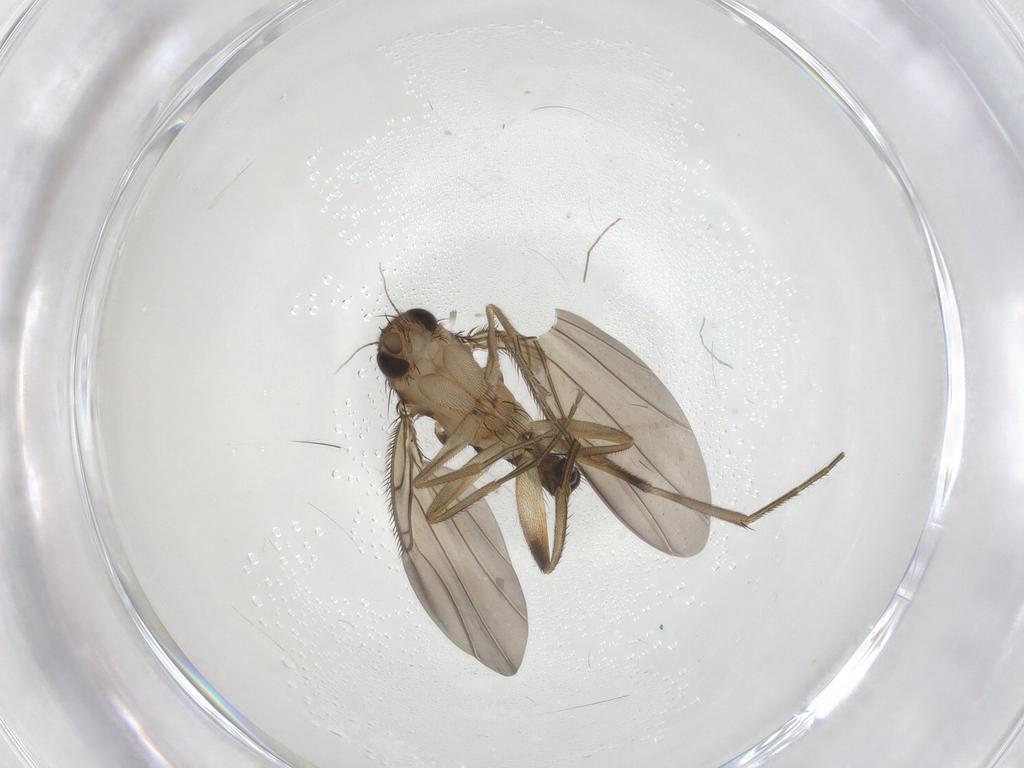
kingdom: Animalia
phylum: Arthropoda
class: Insecta
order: Diptera
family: Phoridae
